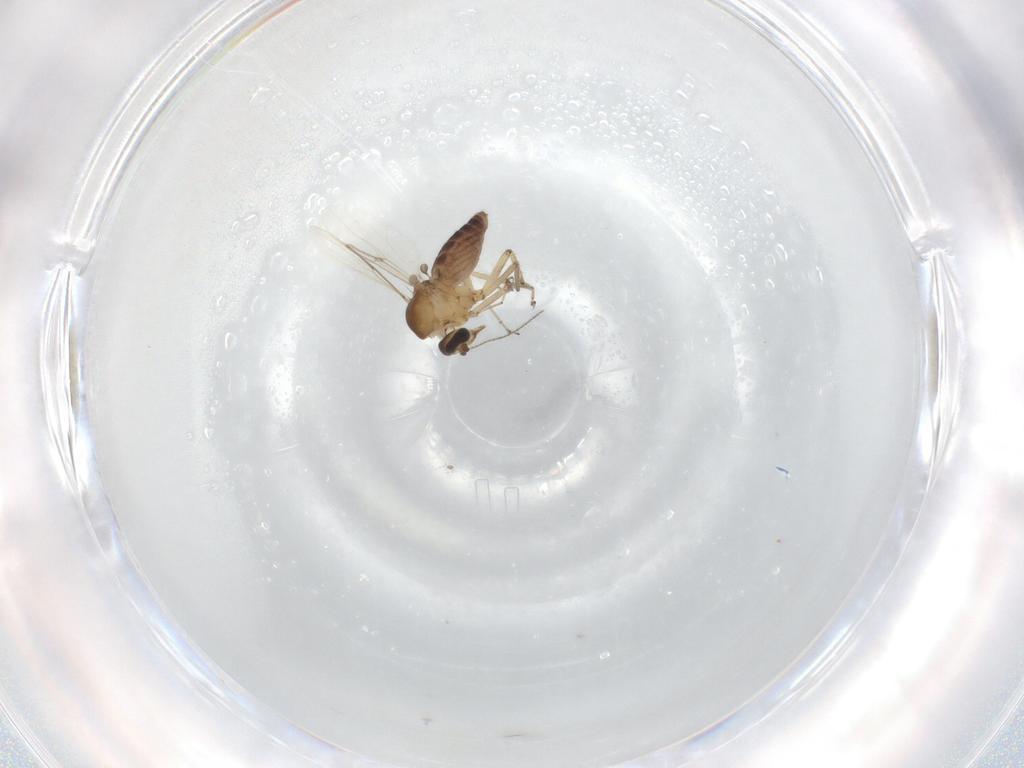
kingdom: Animalia
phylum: Arthropoda
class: Insecta
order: Diptera
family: Ceratopogonidae
